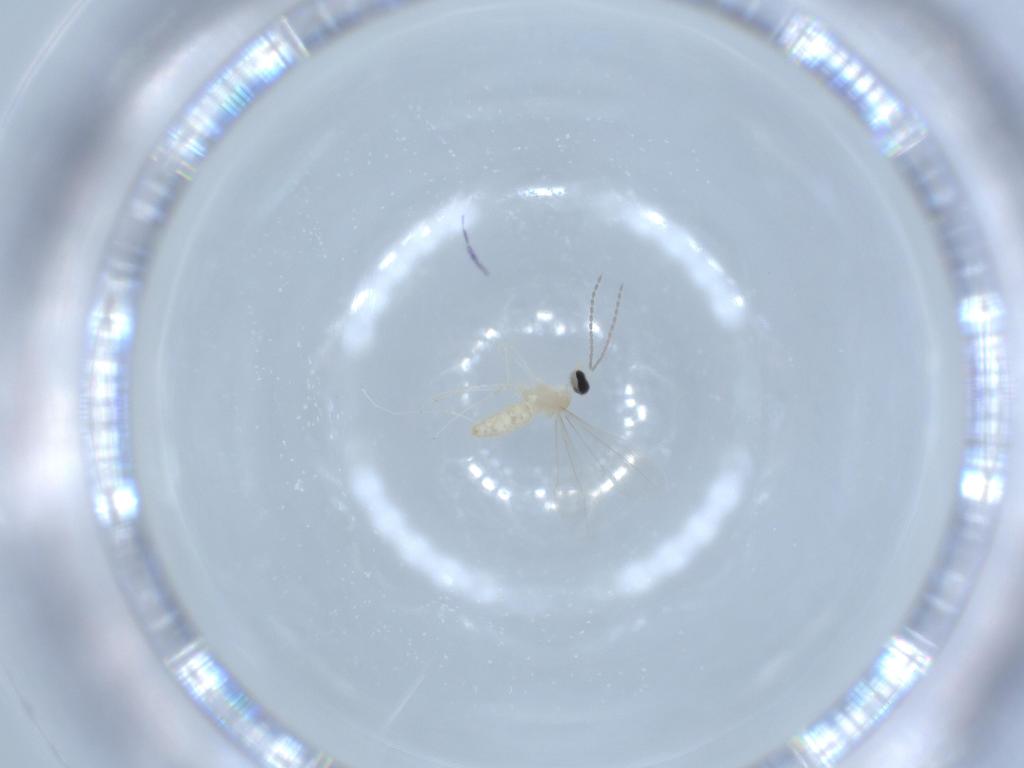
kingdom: Animalia
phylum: Arthropoda
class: Insecta
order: Diptera
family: Cecidomyiidae
